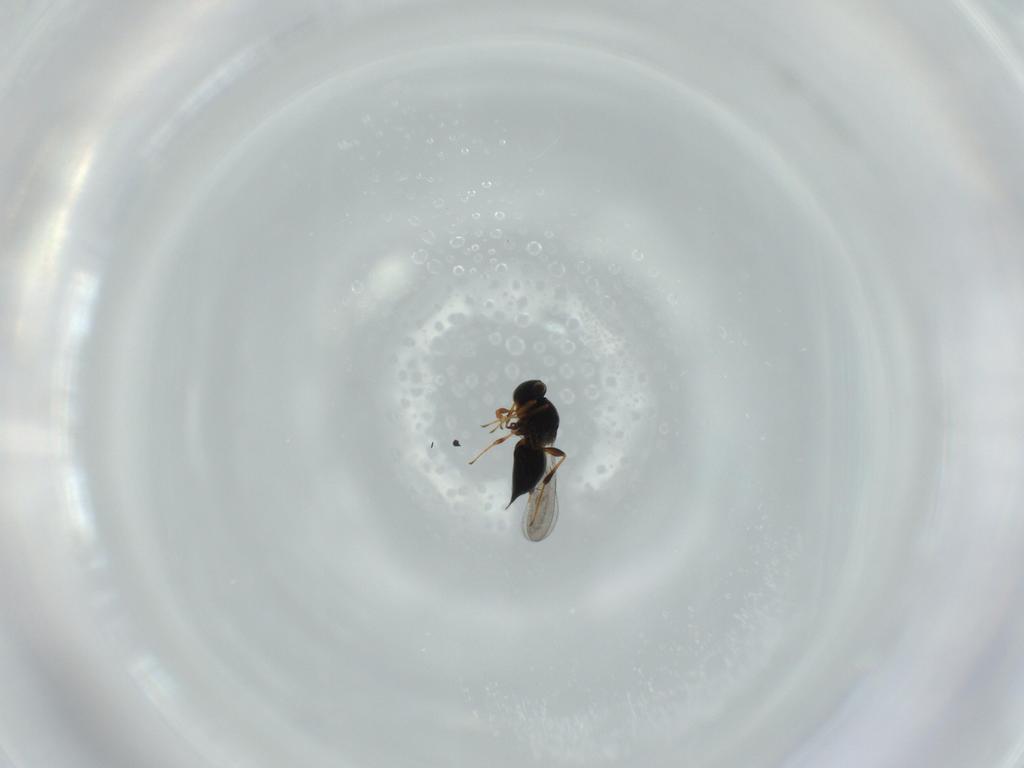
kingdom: Animalia
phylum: Arthropoda
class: Insecta
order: Hymenoptera
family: Platygastridae
